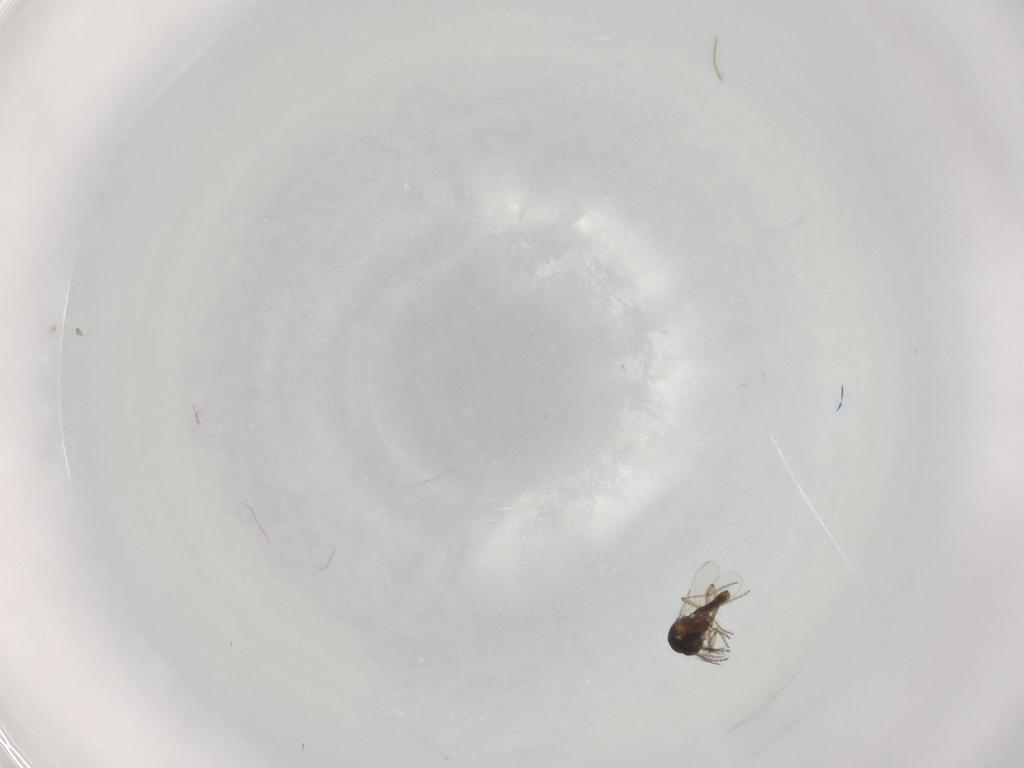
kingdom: Animalia
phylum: Arthropoda
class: Insecta
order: Diptera
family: Ceratopogonidae
